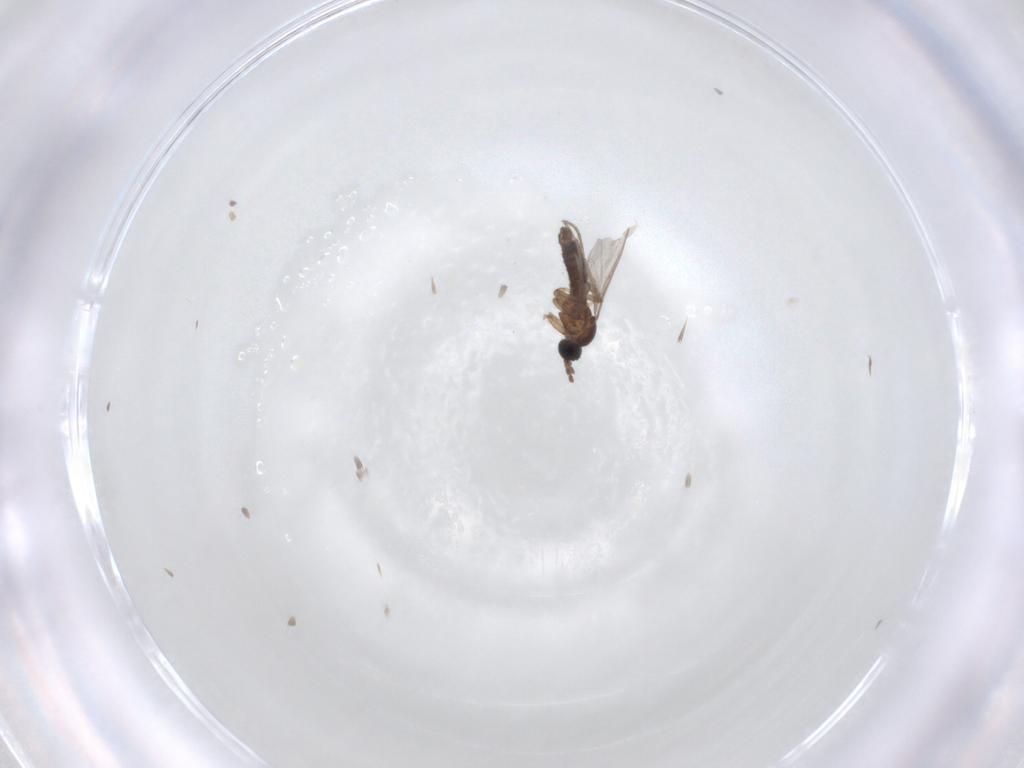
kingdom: Animalia
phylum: Arthropoda
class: Insecta
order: Diptera
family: Sciaridae
